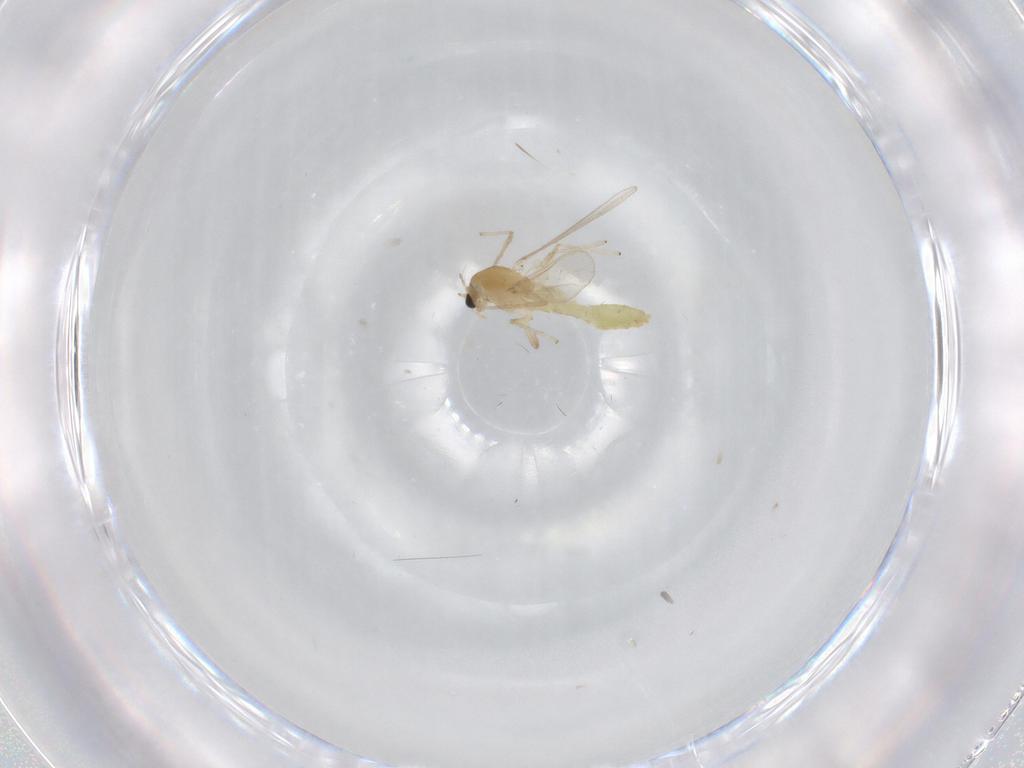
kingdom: Animalia
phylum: Arthropoda
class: Insecta
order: Diptera
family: Chironomidae
